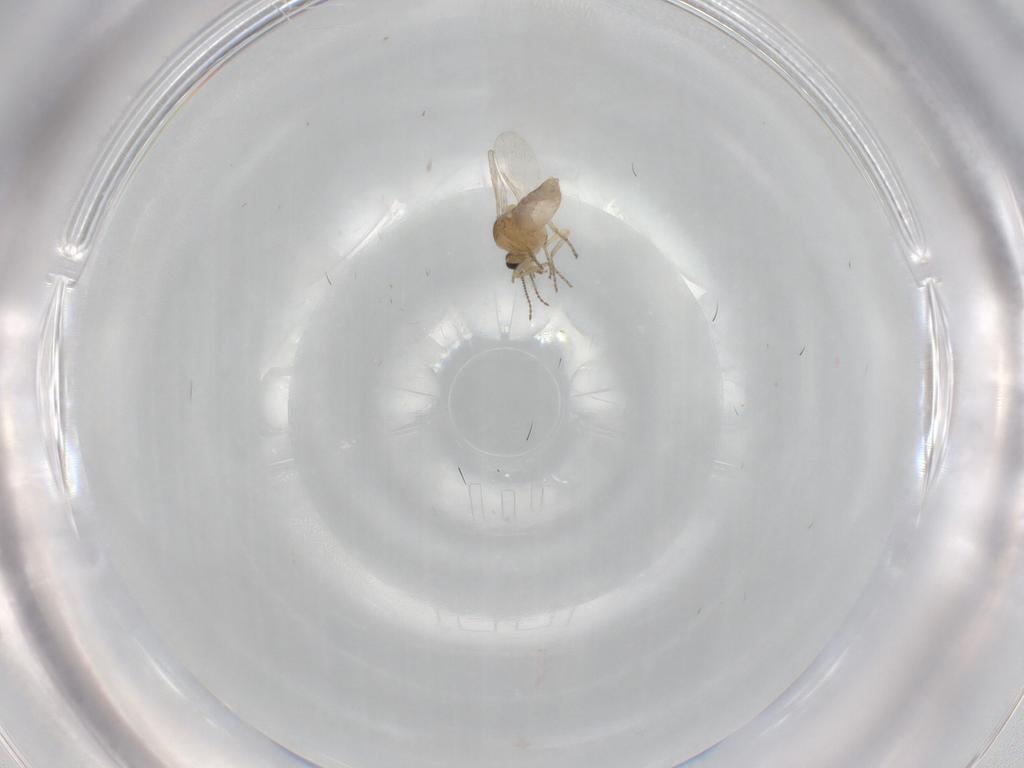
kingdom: Animalia
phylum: Arthropoda
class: Insecta
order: Diptera
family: Ceratopogonidae
